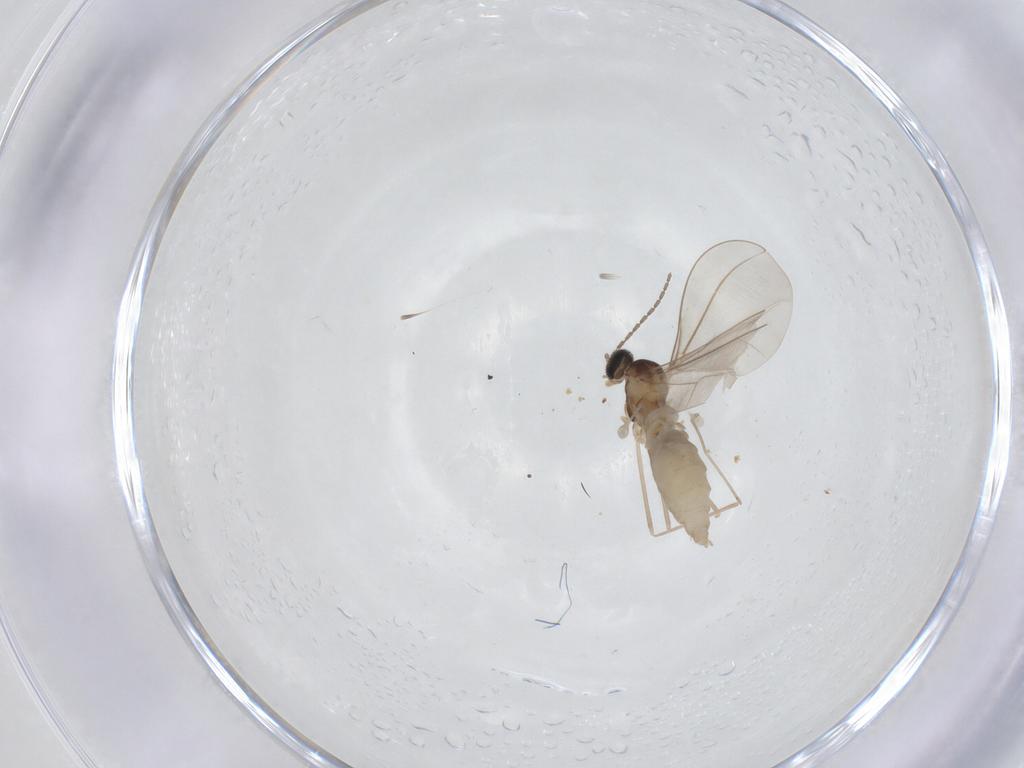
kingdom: Animalia
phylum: Arthropoda
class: Insecta
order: Diptera
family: Cecidomyiidae
